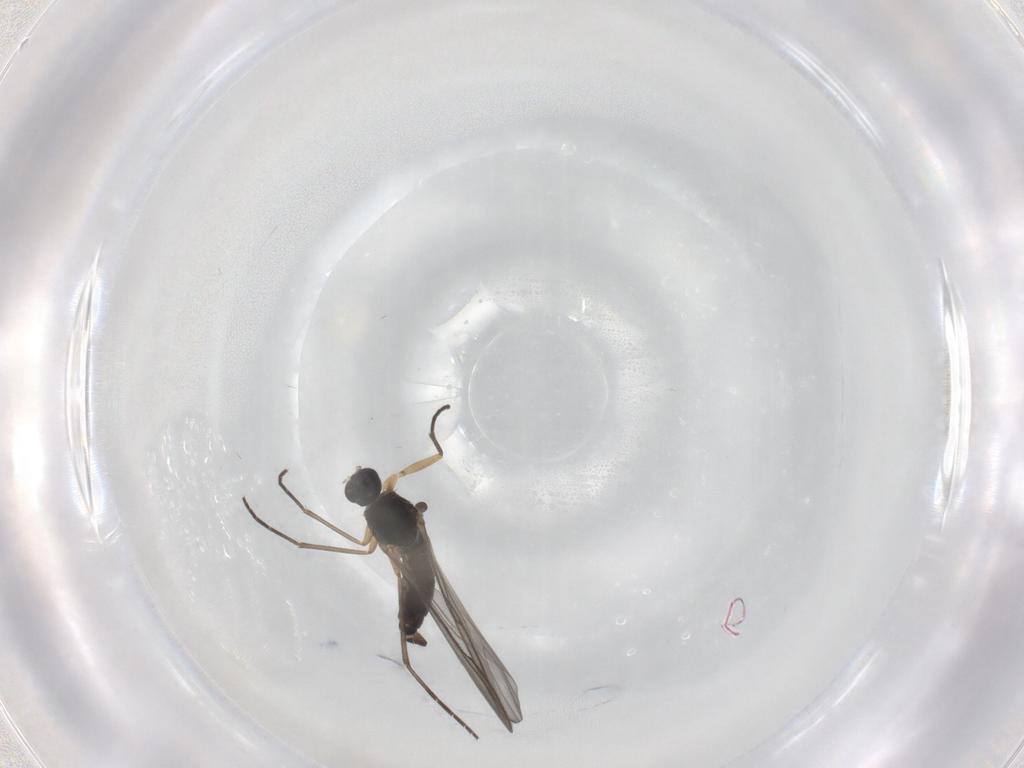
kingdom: Animalia
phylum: Arthropoda
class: Insecta
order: Diptera
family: Sciaridae
